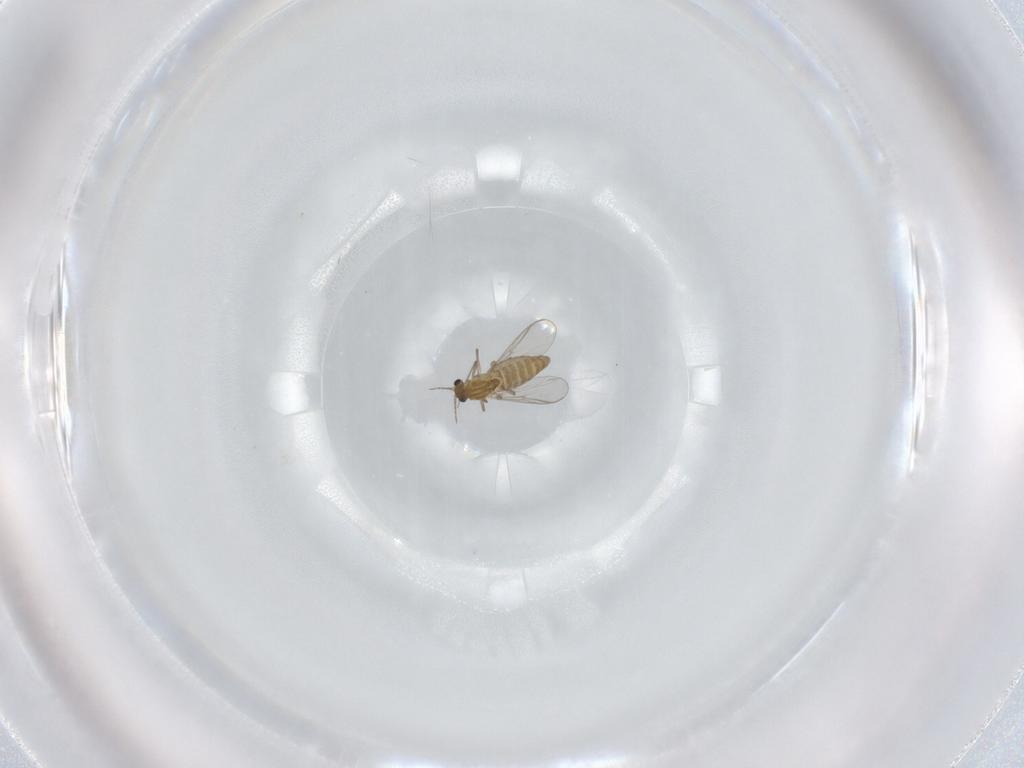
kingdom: Animalia
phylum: Arthropoda
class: Insecta
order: Diptera
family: Chironomidae
